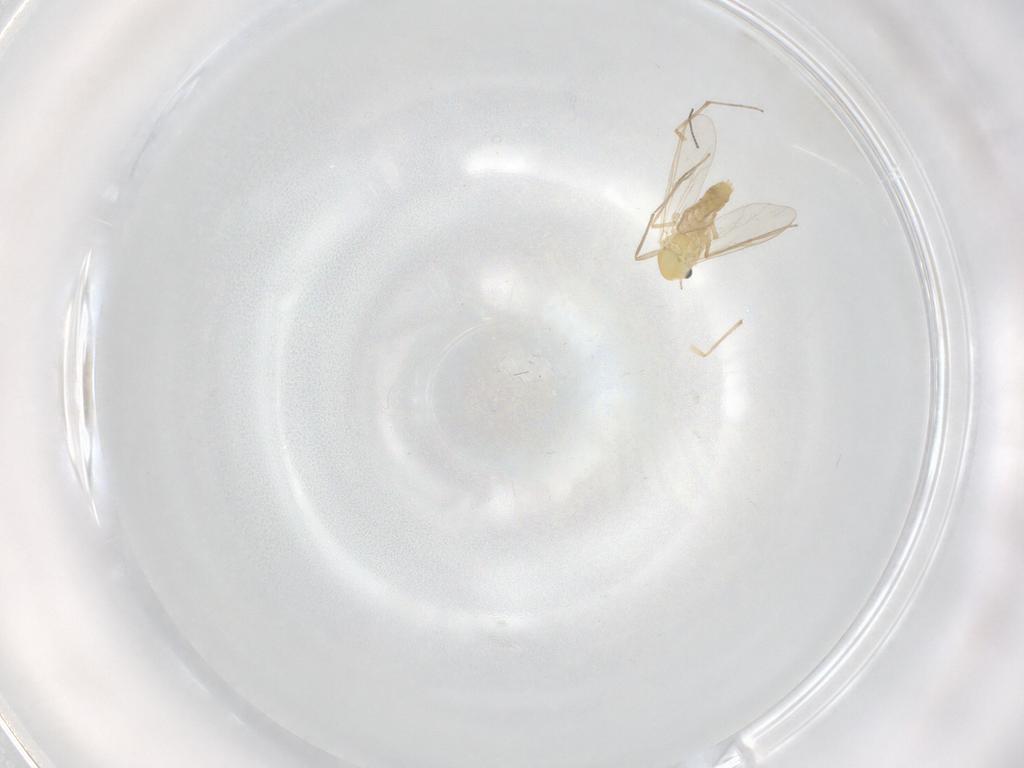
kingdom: Animalia
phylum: Arthropoda
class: Insecta
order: Diptera
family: Chironomidae
